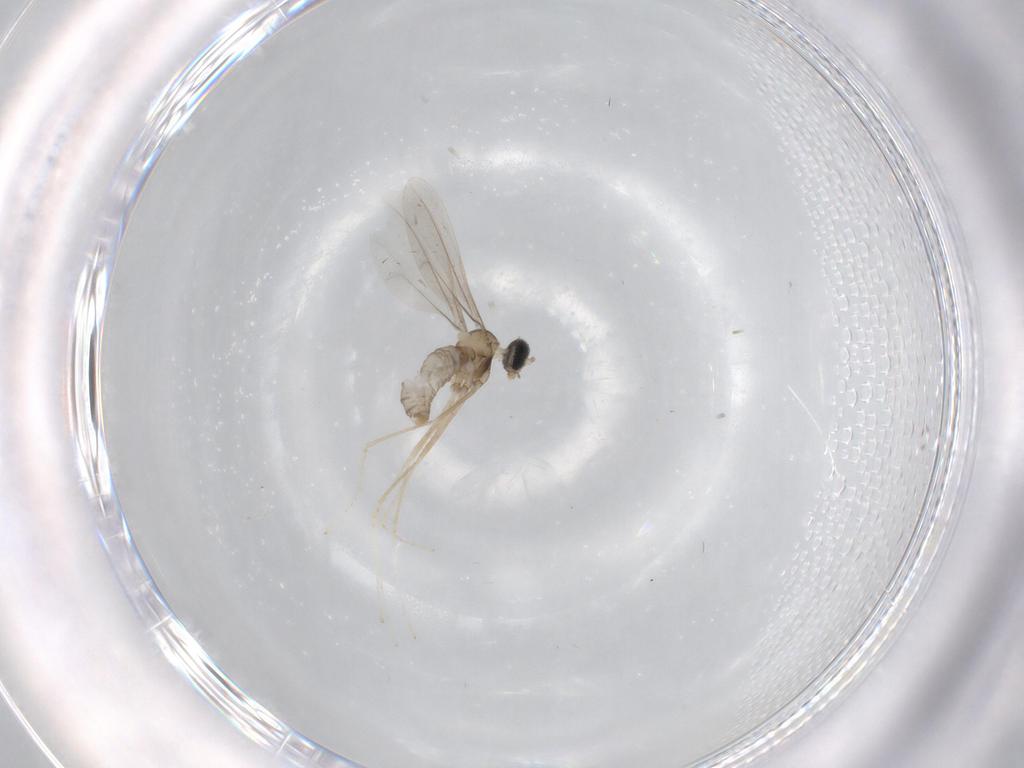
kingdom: Animalia
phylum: Arthropoda
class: Insecta
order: Diptera
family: Cecidomyiidae
